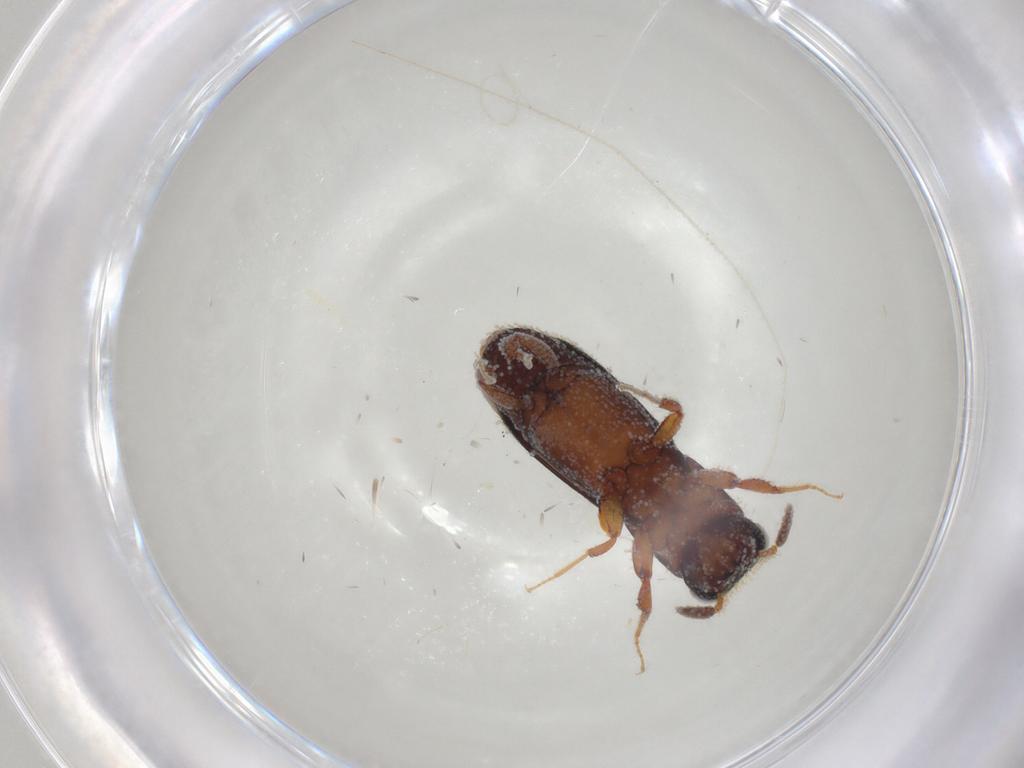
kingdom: Animalia
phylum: Arthropoda
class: Insecta
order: Coleoptera
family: Curculionidae
